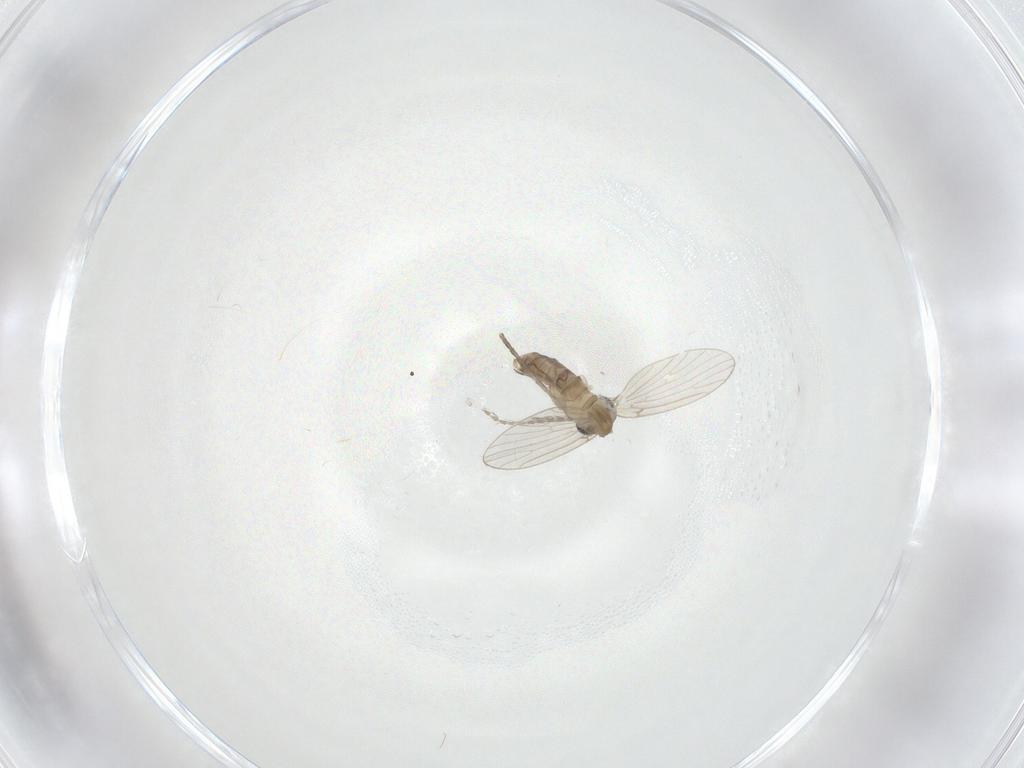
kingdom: Animalia
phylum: Arthropoda
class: Insecta
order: Diptera
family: Psychodidae
